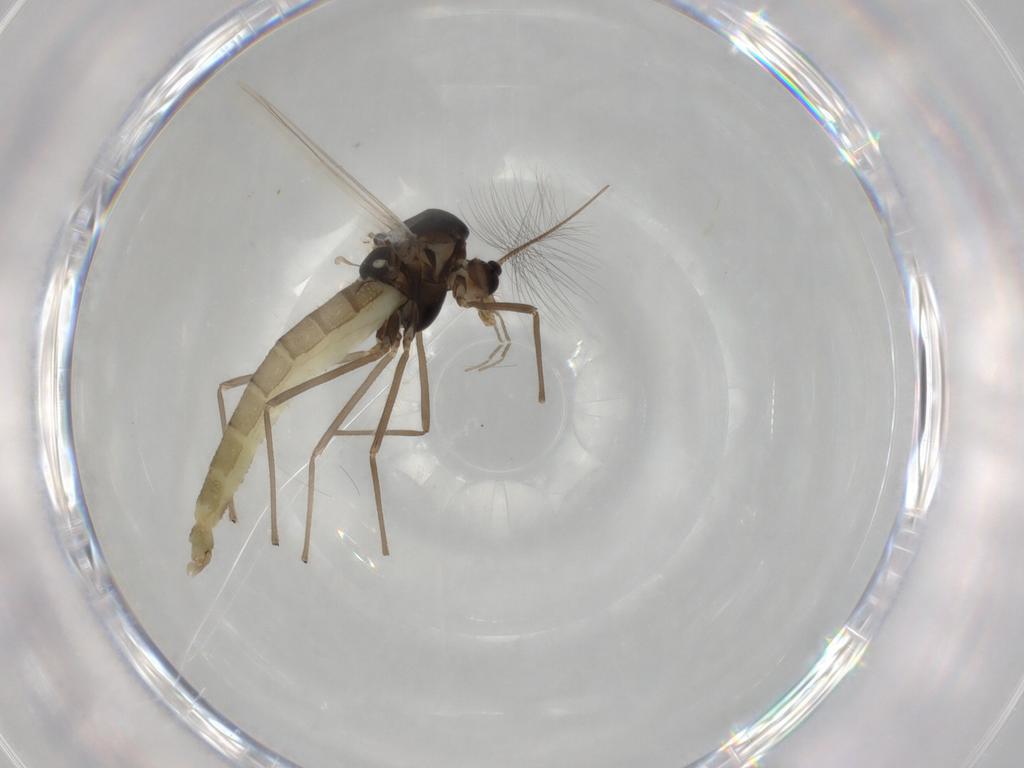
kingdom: Animalia
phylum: Arthropoda
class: Insecta
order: Diptera
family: Chironomidae
